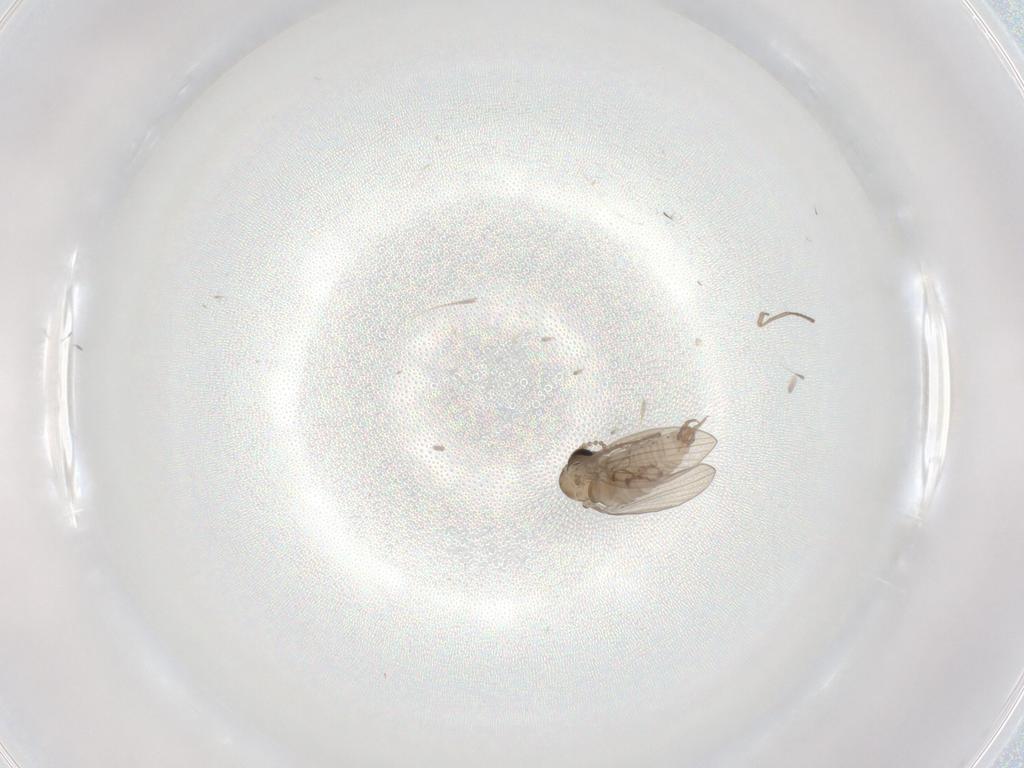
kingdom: Animalia
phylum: Arthropoda
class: Insecta
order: Diptera
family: Psychodidae
